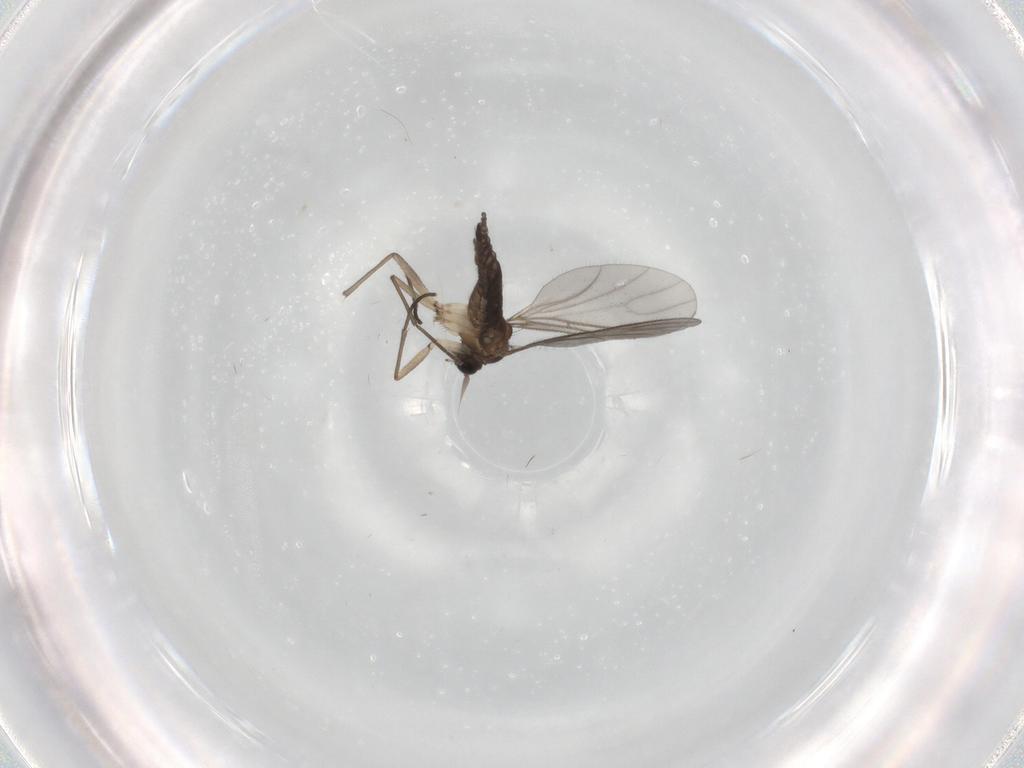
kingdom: Animalia
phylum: Arthropoda
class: Insecta
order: Diptera
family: Sciaridae
